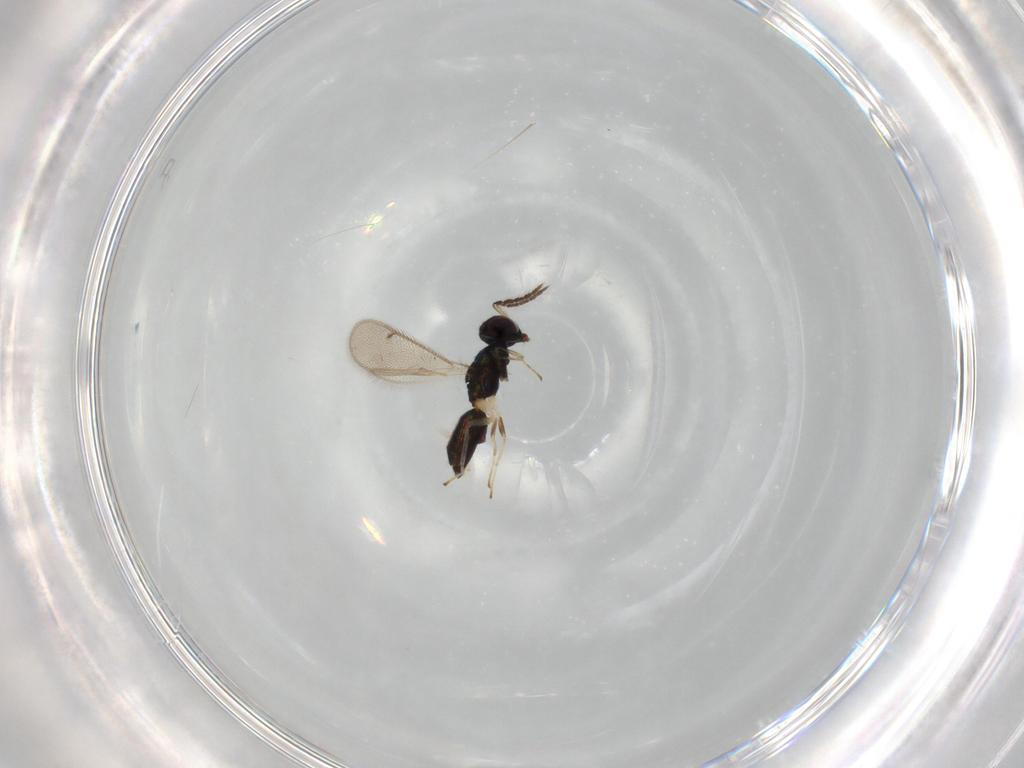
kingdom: Animalia
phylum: Arthropoda
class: Insecta
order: Hymenoptera
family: Eulophidae
